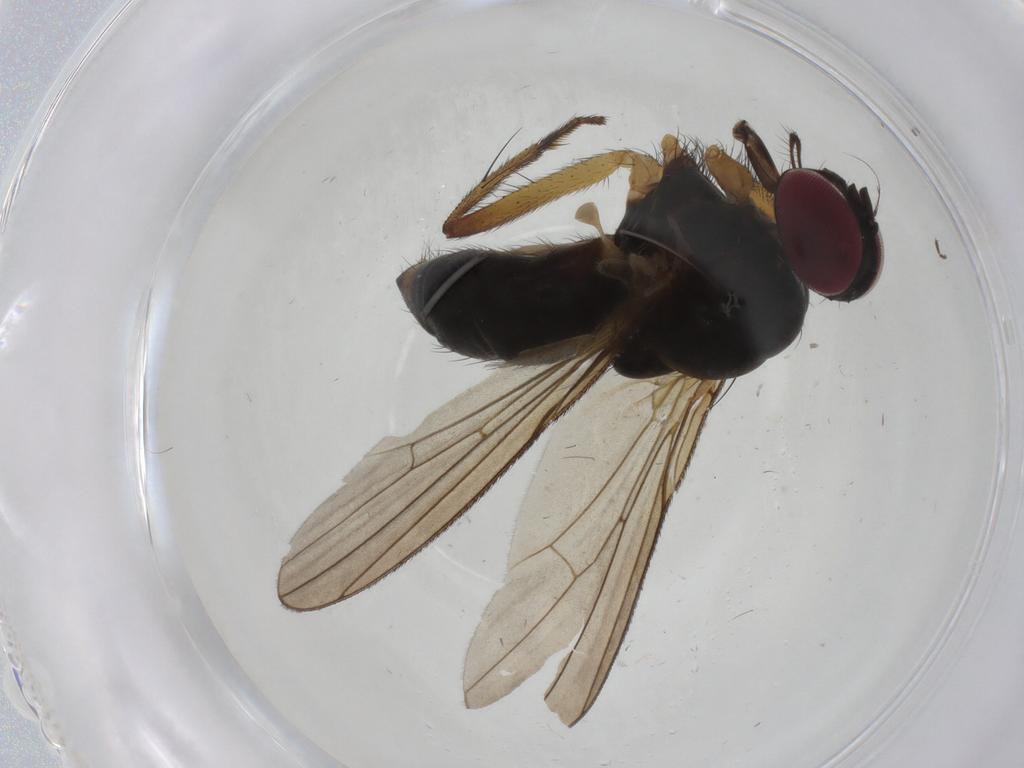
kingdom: Animalia
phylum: Arthropoda
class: Insecta
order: Diptera
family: Anthomyiidae
